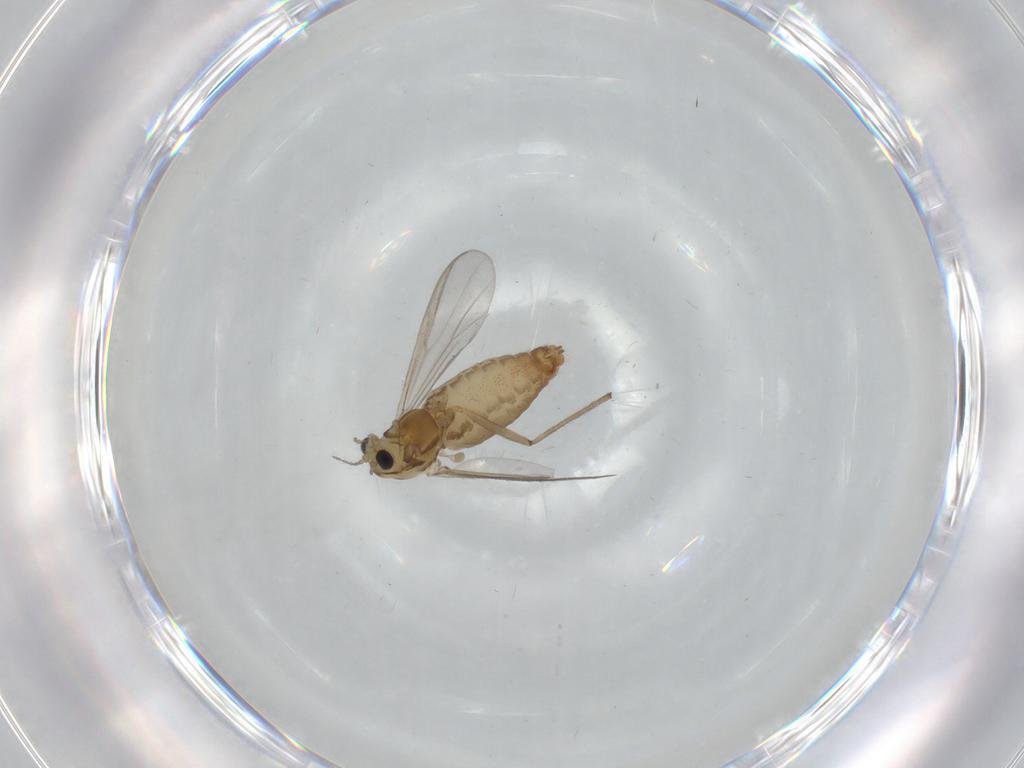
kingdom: Animalia
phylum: Arthropoda
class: Insecta
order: Diptera
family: Chironomidae
